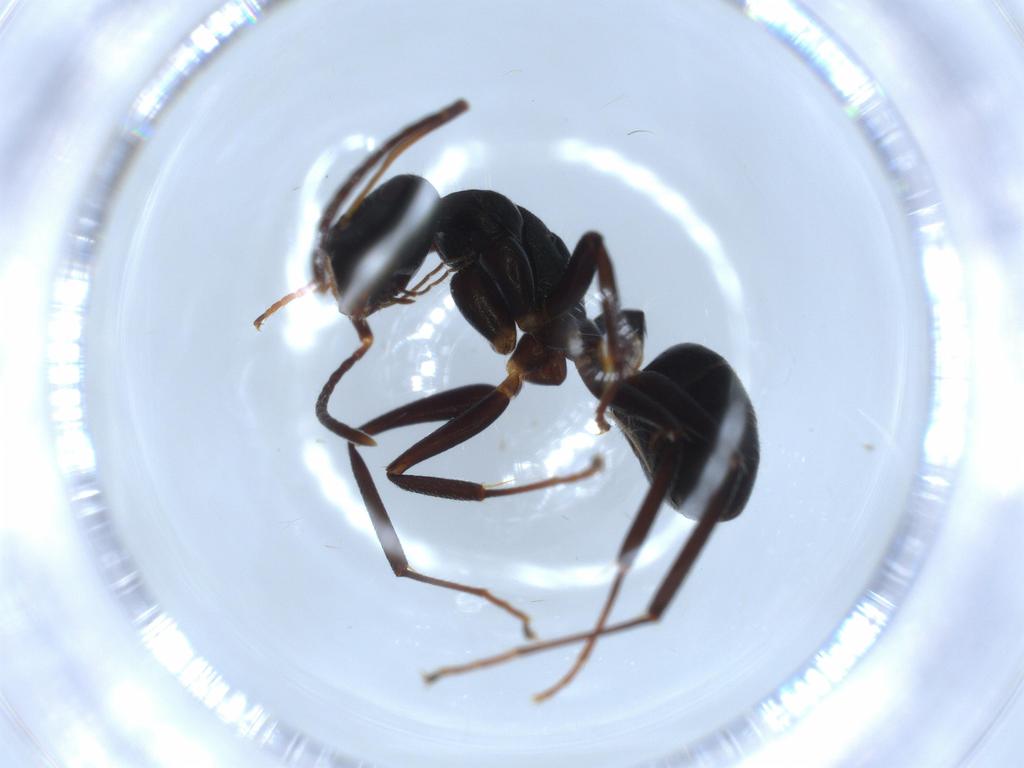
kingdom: Animalia
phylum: Arthropoda
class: Insecta
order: Hymenoptera
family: Formicidae
